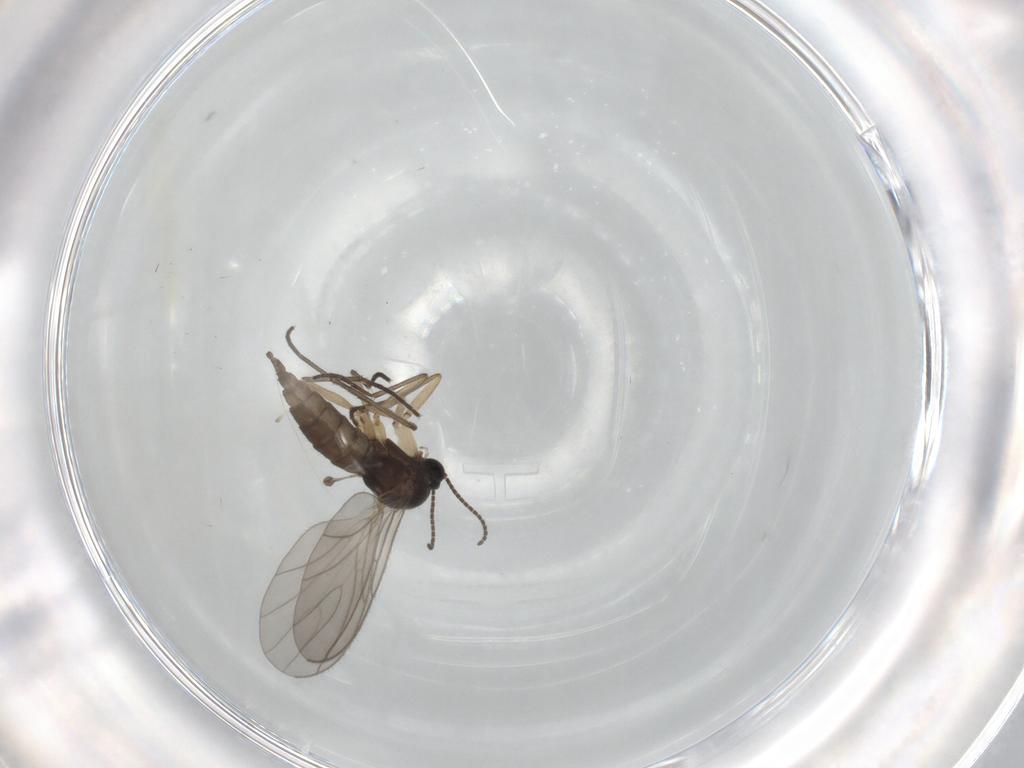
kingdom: Animalia
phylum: Arthropoda
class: Insecta
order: Diptera
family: Sciaridae
